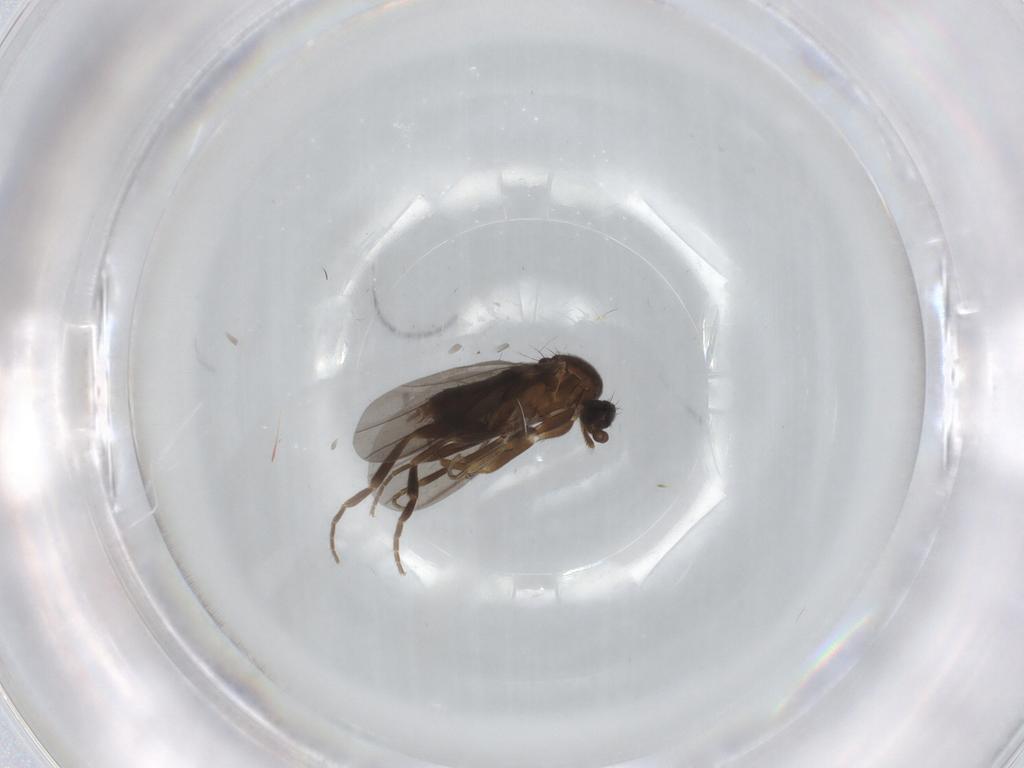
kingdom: Animalia
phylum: Arthropoda
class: Insecta
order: Diptera
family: Phoridae
